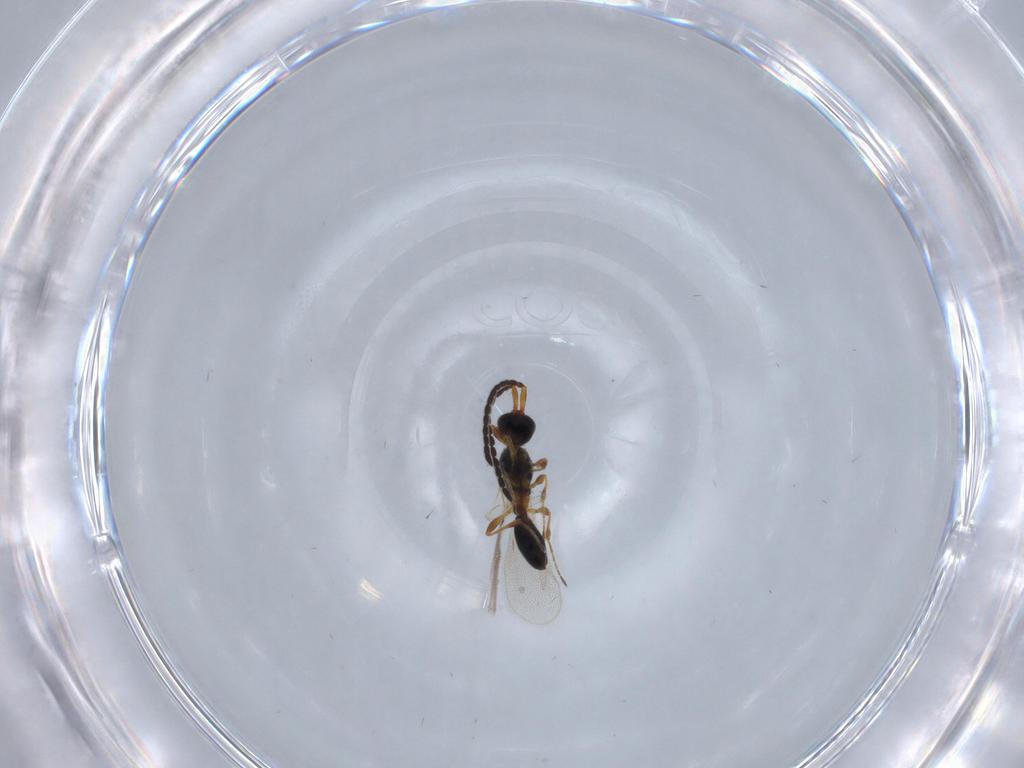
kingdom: Animalia
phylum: Arthropoda
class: Insecta
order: Hymenoptera
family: Diapriidae
